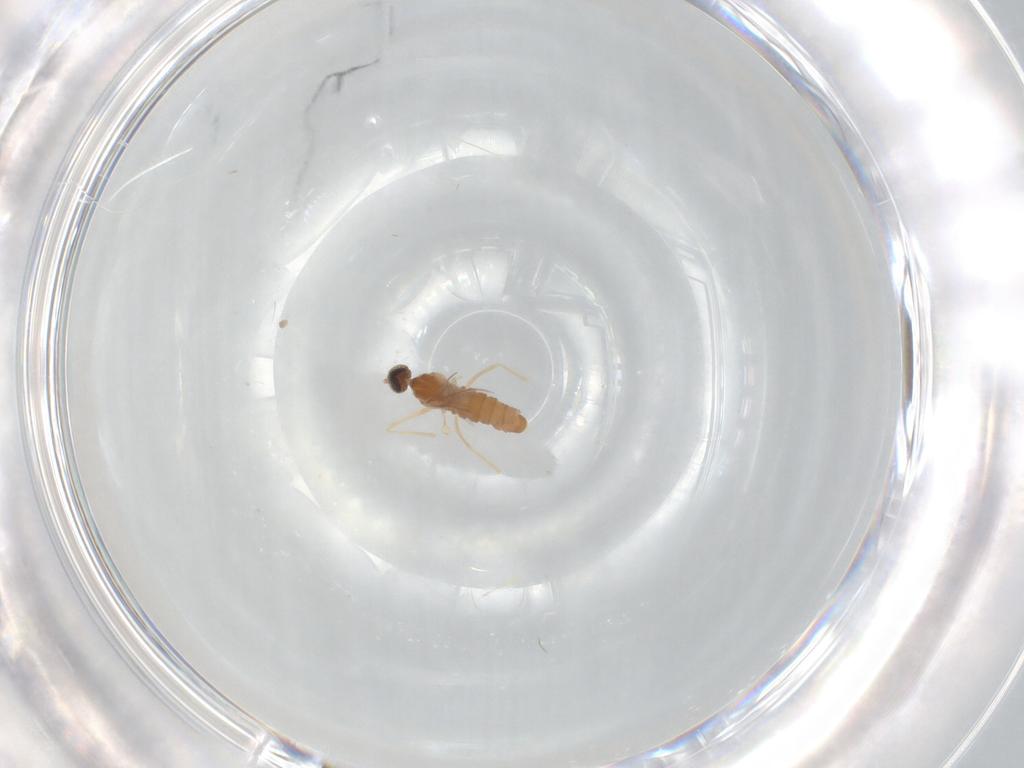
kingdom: Animalia
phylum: Arthropoda
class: Insecta
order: Diptera
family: Cecidomyiidae
